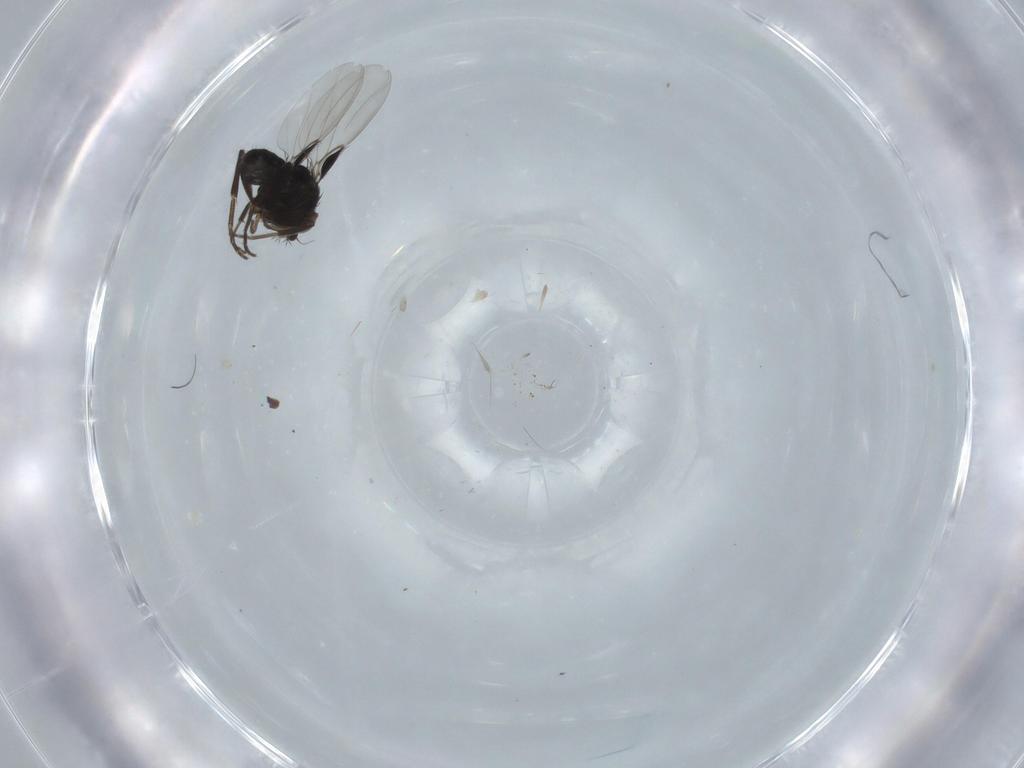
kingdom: Animalia
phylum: Arthropoda
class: Insecta
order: Diptera
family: Phoridae
